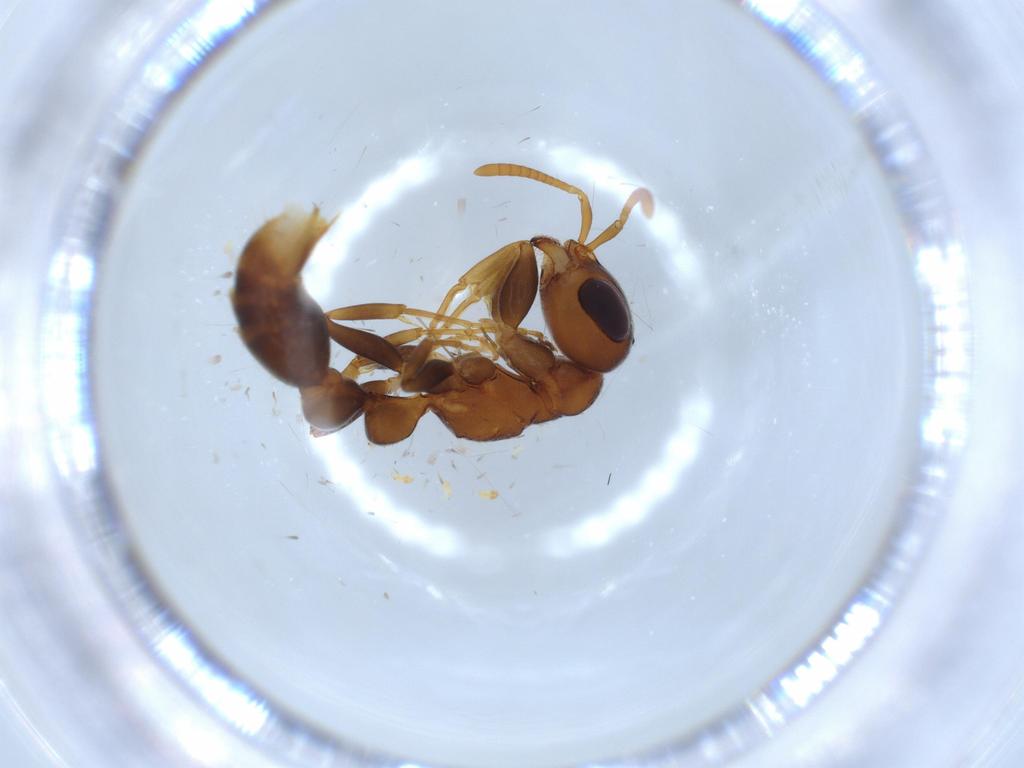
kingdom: Animalia
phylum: Arthropoda
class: Insecta
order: Hymenoptera
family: Formicidae
